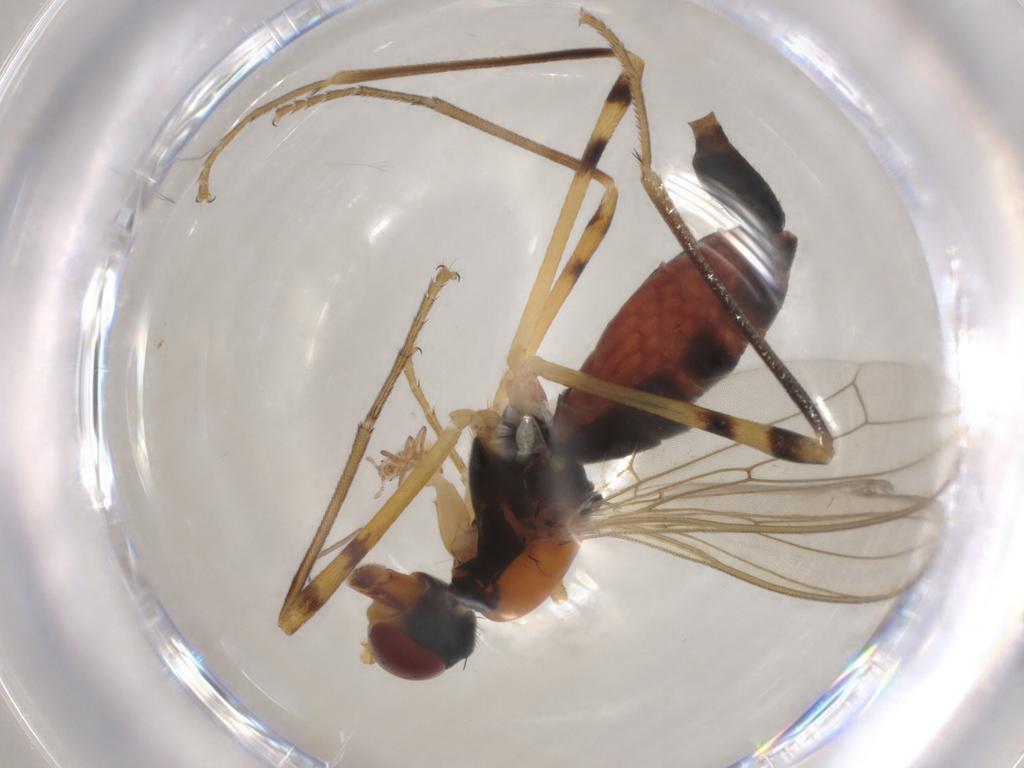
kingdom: Animalia
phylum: Arthropoda
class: Insecta
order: Diptera
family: Micropezidae
